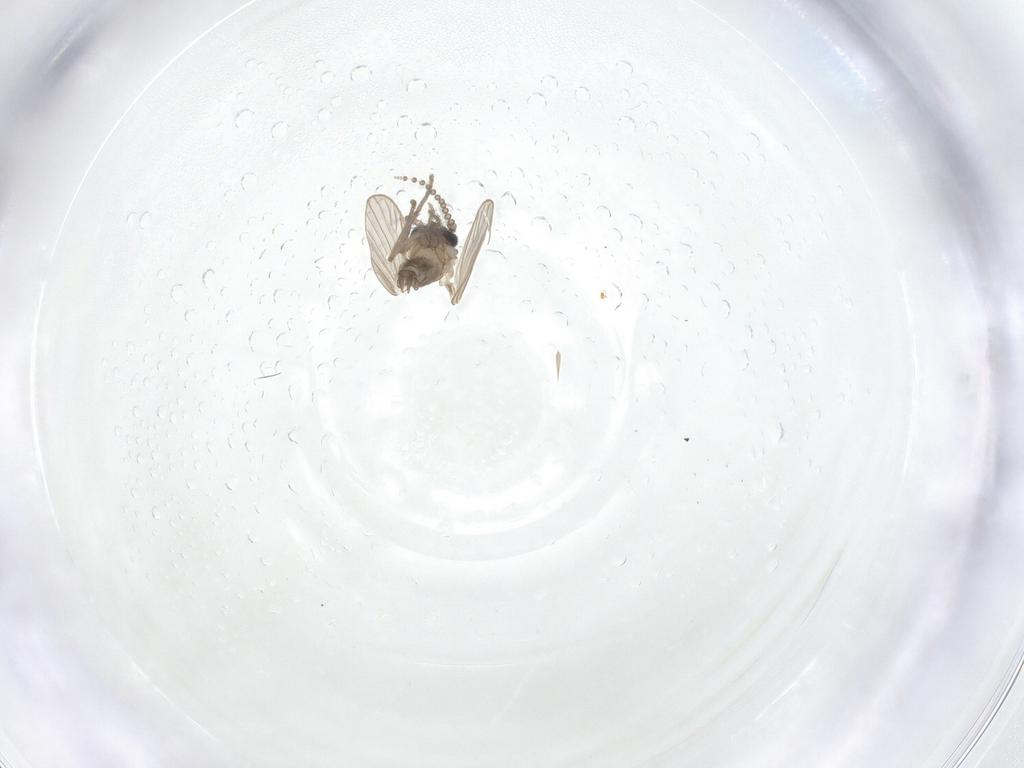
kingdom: Animalia
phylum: Arthropoda
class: Insecta
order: Diptera
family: Psychodidae
